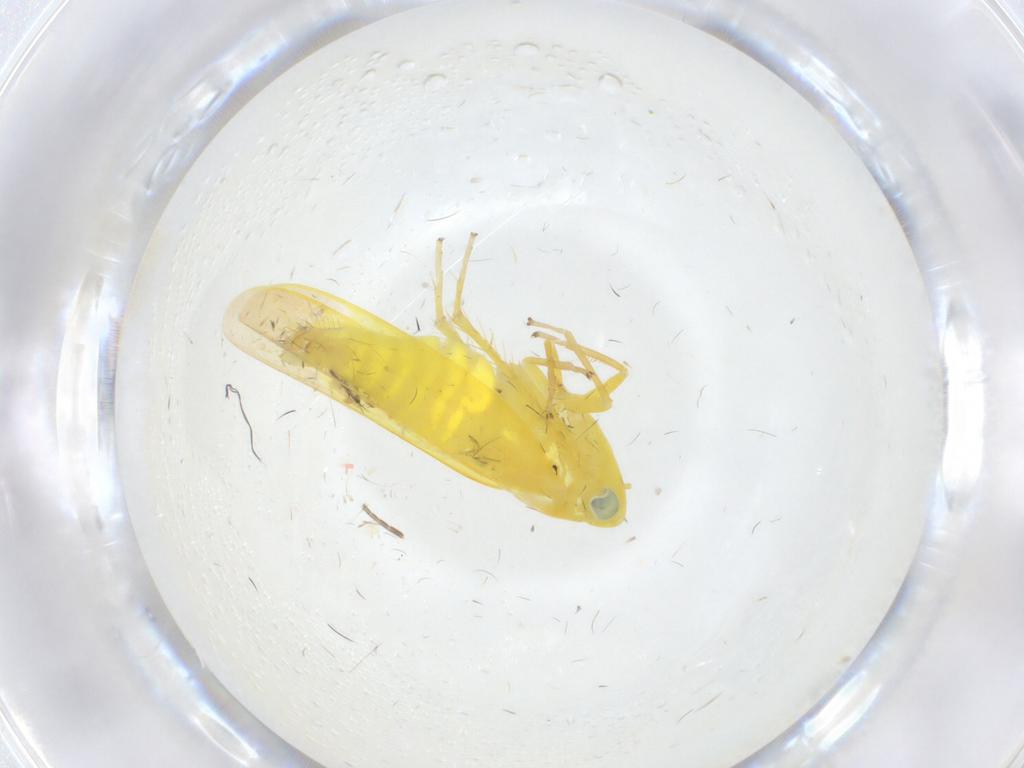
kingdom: Animalia
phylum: Arthropoda
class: Insecta
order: Hemiptera
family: Cicadellidae
